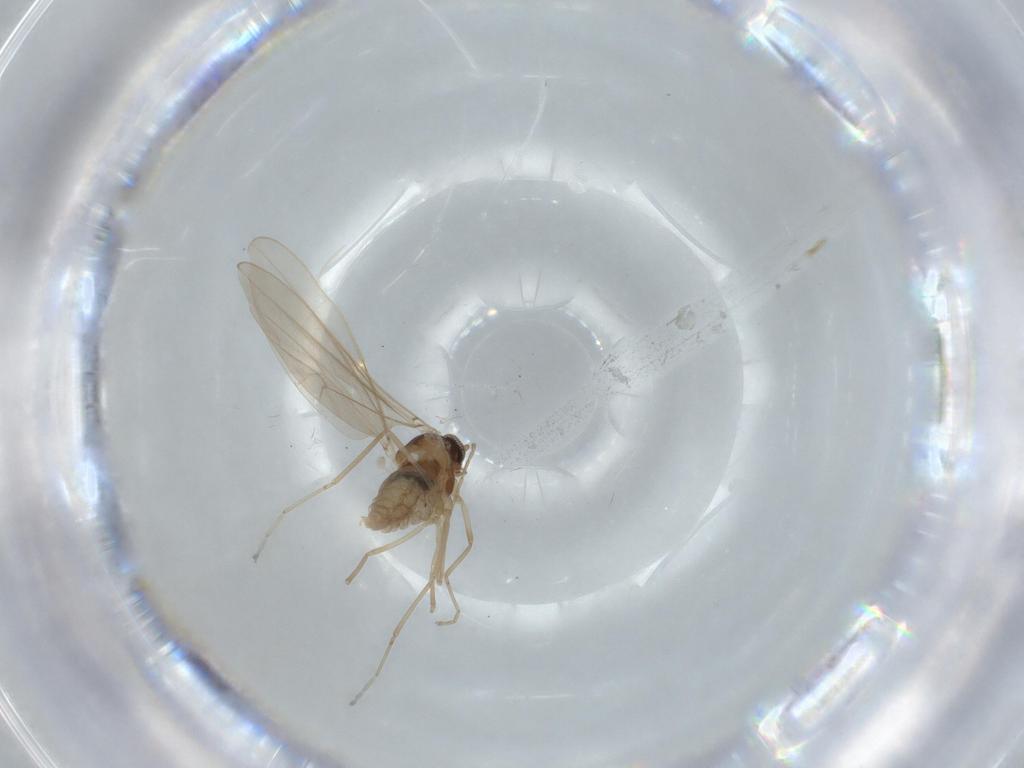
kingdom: Animalia
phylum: Arthropoda
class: Insecta
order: Diptera
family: Cecidomyiidae
